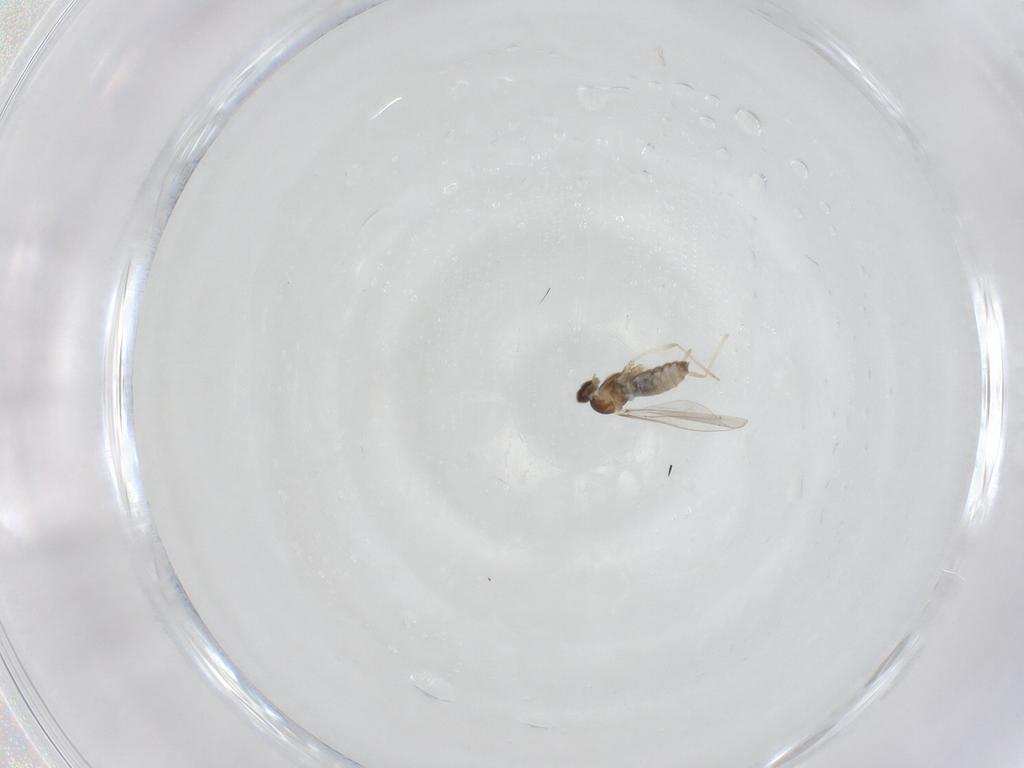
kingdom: Animalia
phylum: Arthropoda
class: Insecta
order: Diptera
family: Cecidomyiidae
